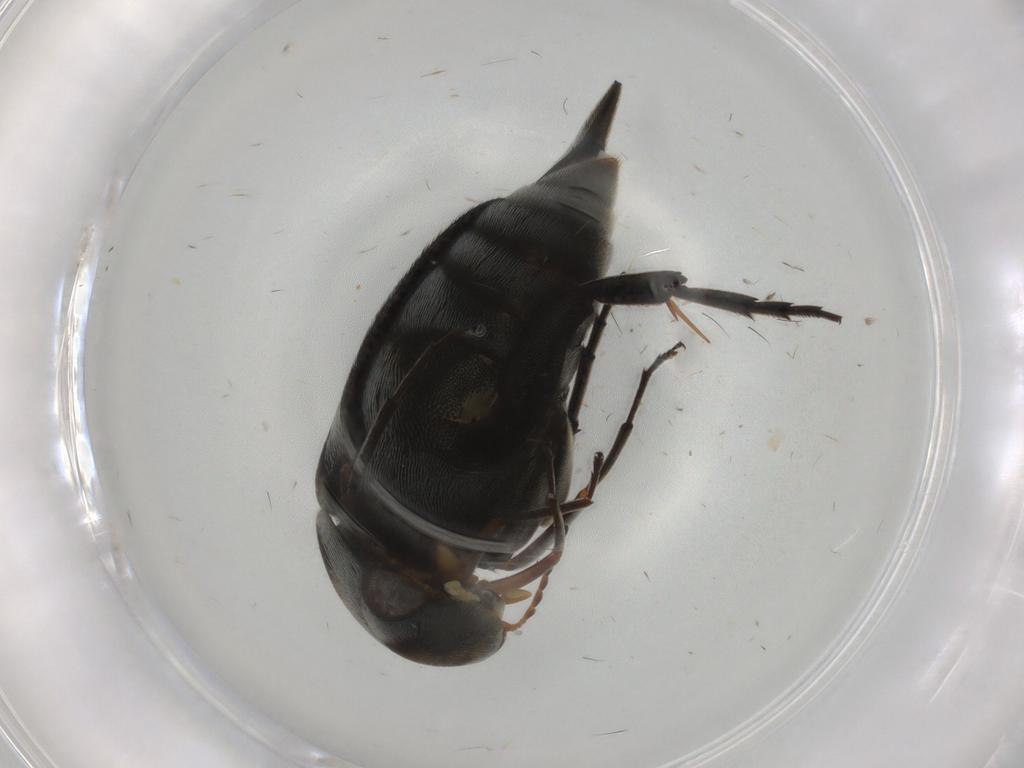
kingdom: Animalia
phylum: Arthropoda
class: Insecta
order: Coleoptera
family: Mordellidae
